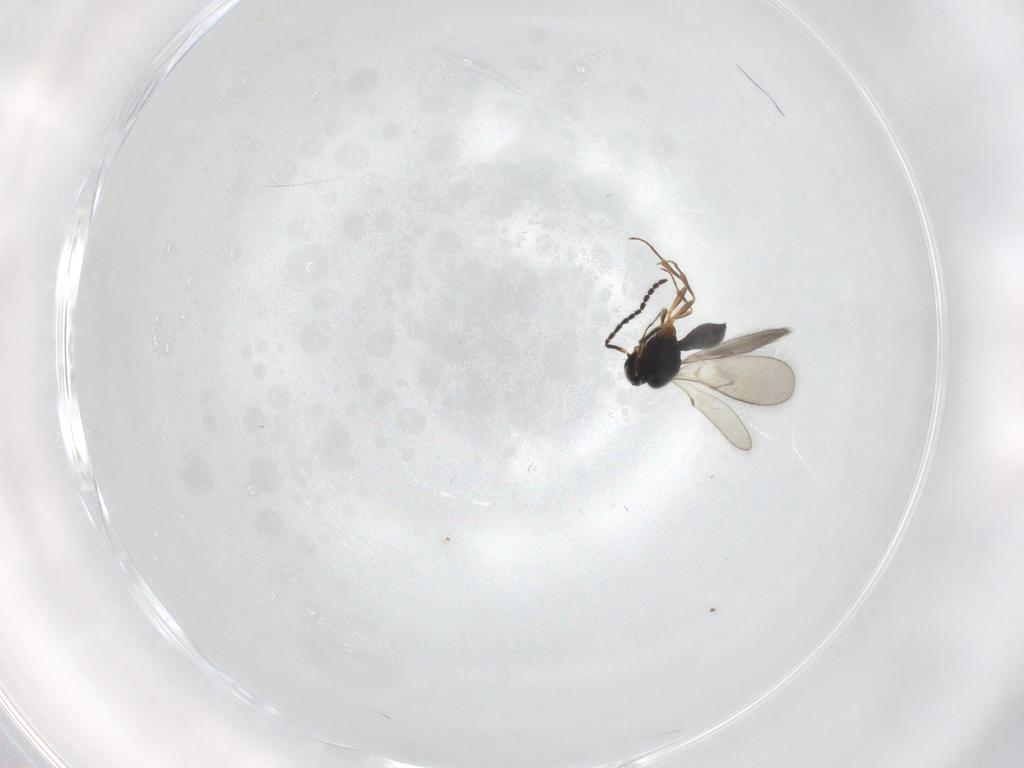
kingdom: Animalia
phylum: Arthropoda
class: Insecta
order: Hymenoptera
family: Scelionidae
